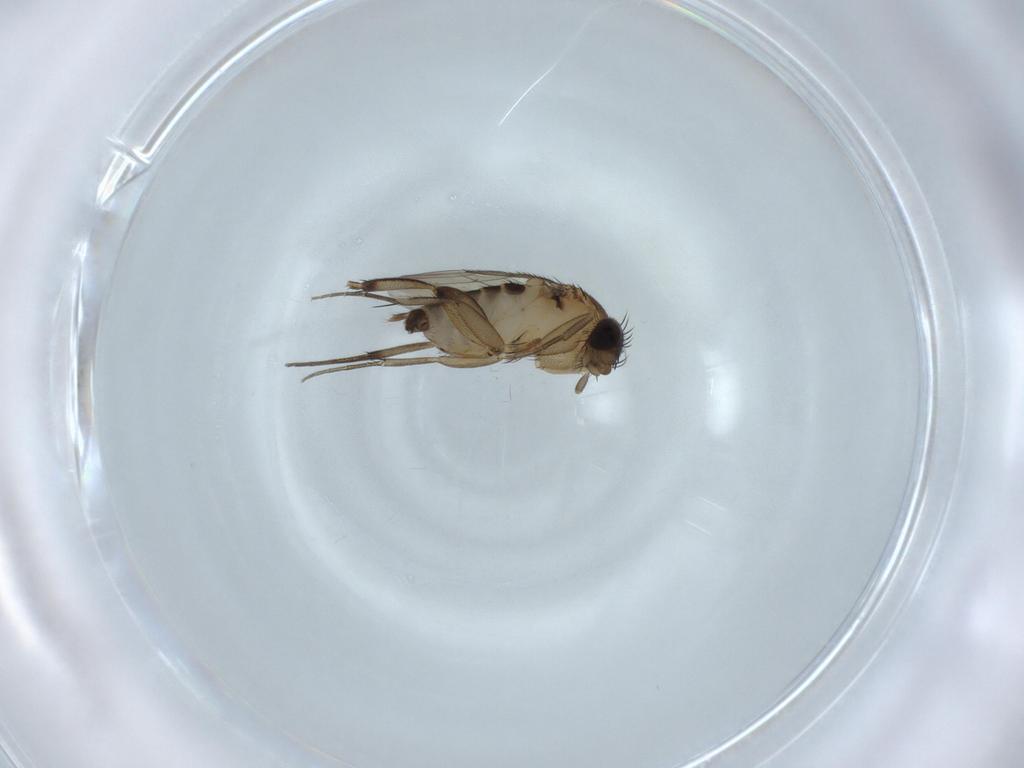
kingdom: Animalia
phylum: Arthropoda
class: Insecta
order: Diptera
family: Phoridae
